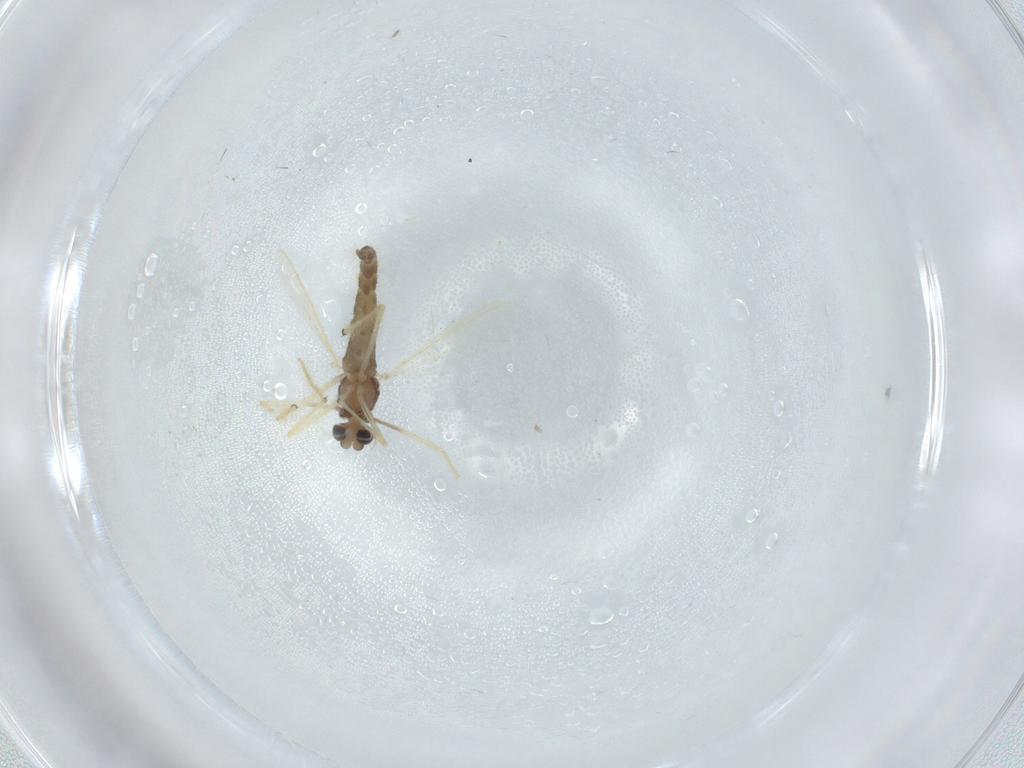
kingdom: Animalia
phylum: Arthropoda
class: Insecta
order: Diptera
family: Chironomidae
